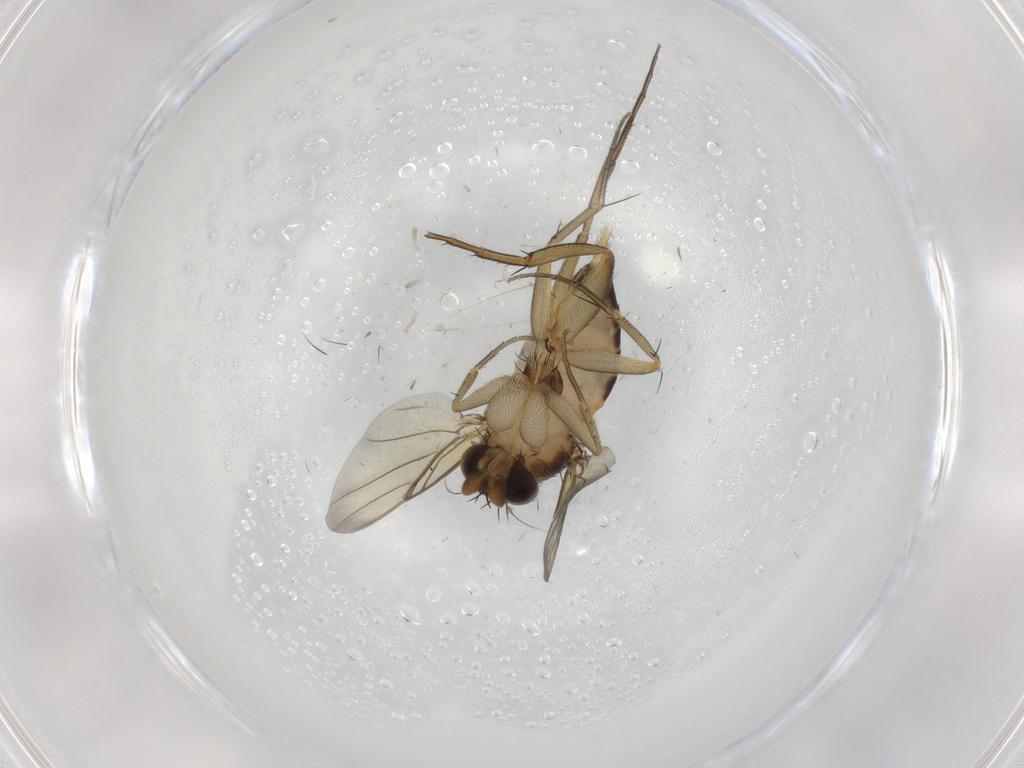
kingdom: Animalia
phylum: Arthropoda
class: Insecta
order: Diptera
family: Phoridae
